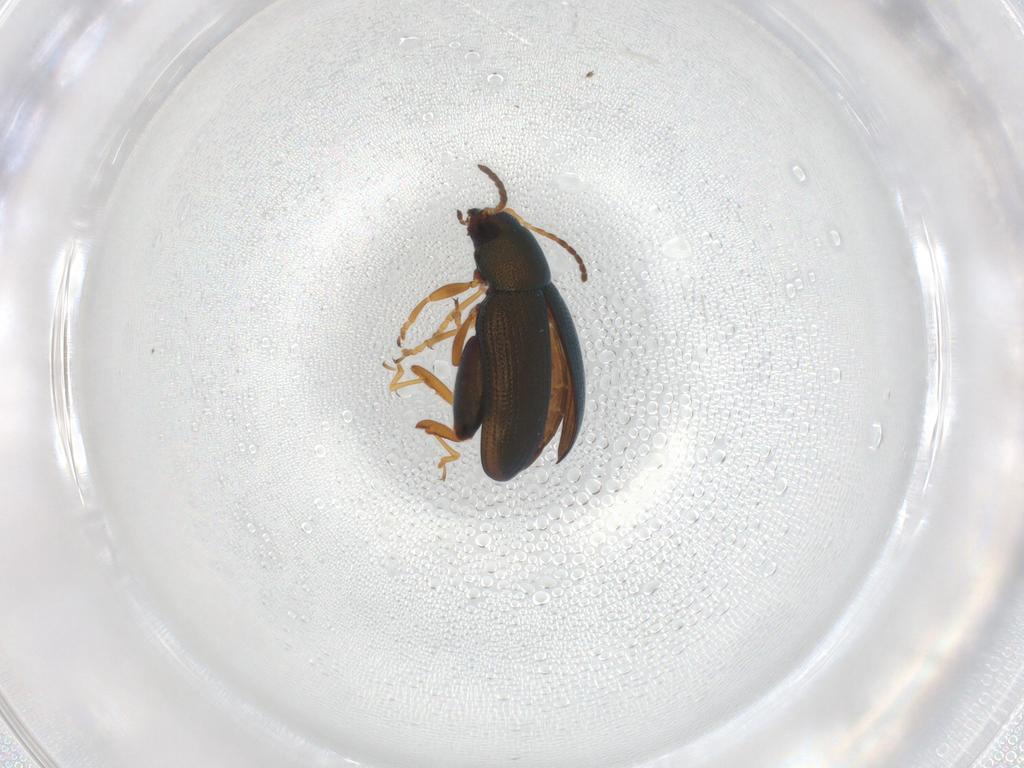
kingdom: Animalia
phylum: Arthropoda
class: Insecta
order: Coleoptera
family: Chrysomelidae
